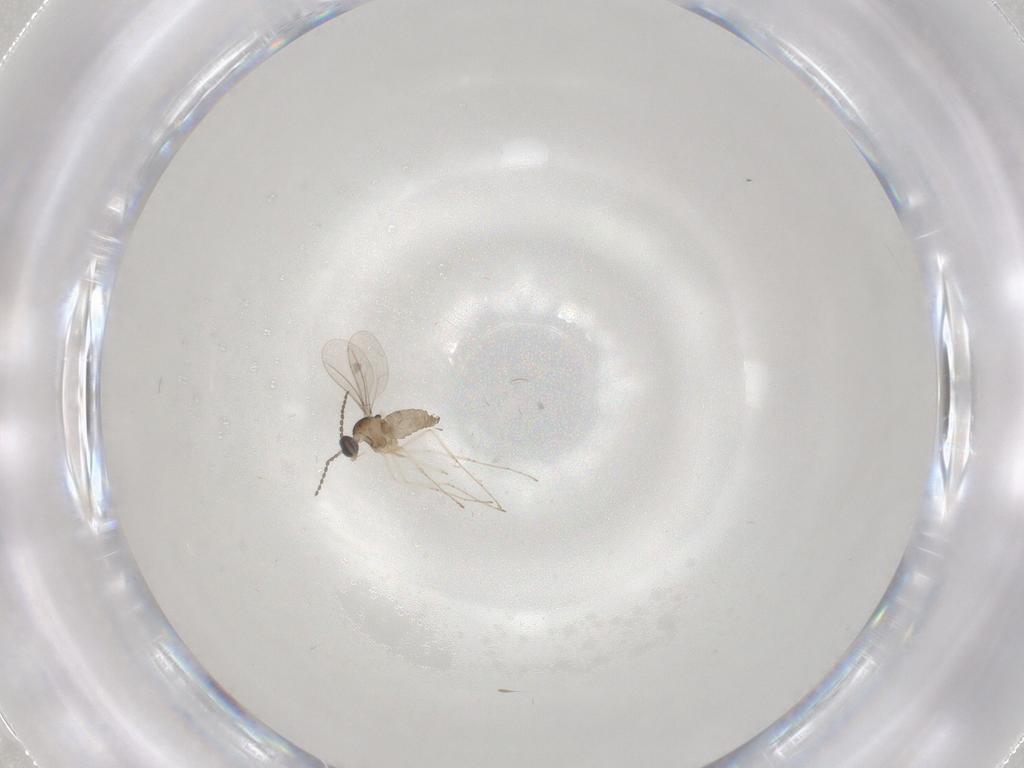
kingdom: Animalia
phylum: Arthropoda
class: Insecta
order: Diptera
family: Cecidomyiidae
